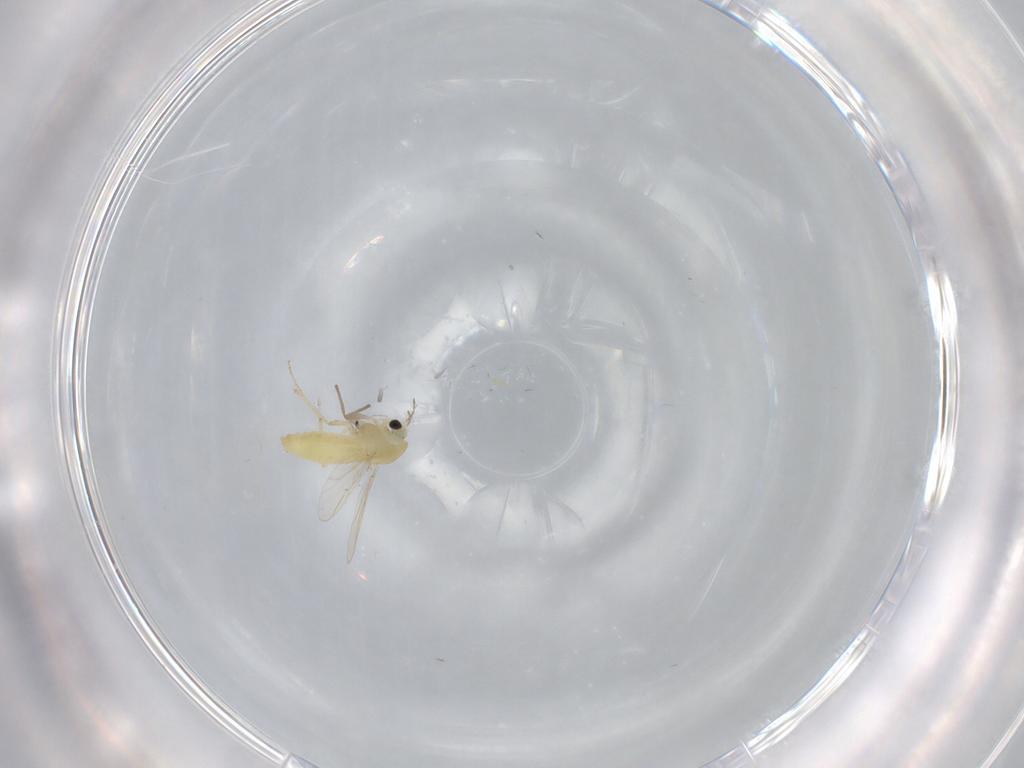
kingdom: Animalia
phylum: Arthropoda
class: Insecta
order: Diptera
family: Chironomidae
